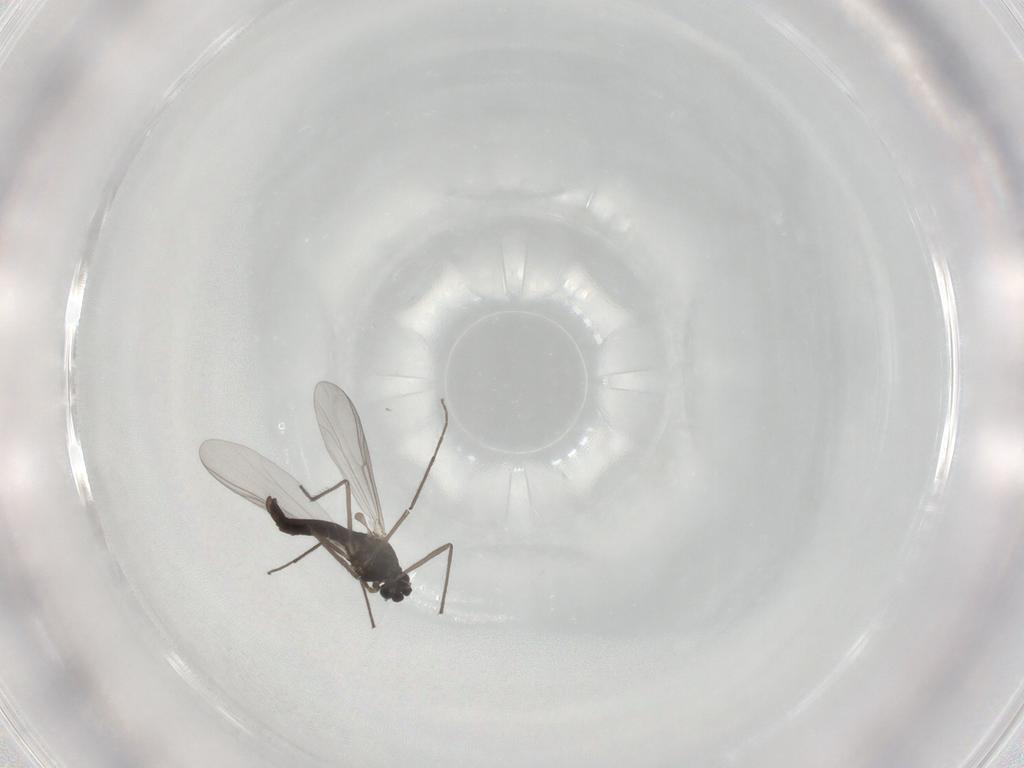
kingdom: Animalia
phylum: Arthropoda
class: Insecta
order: Diptera
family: Chironomidae
